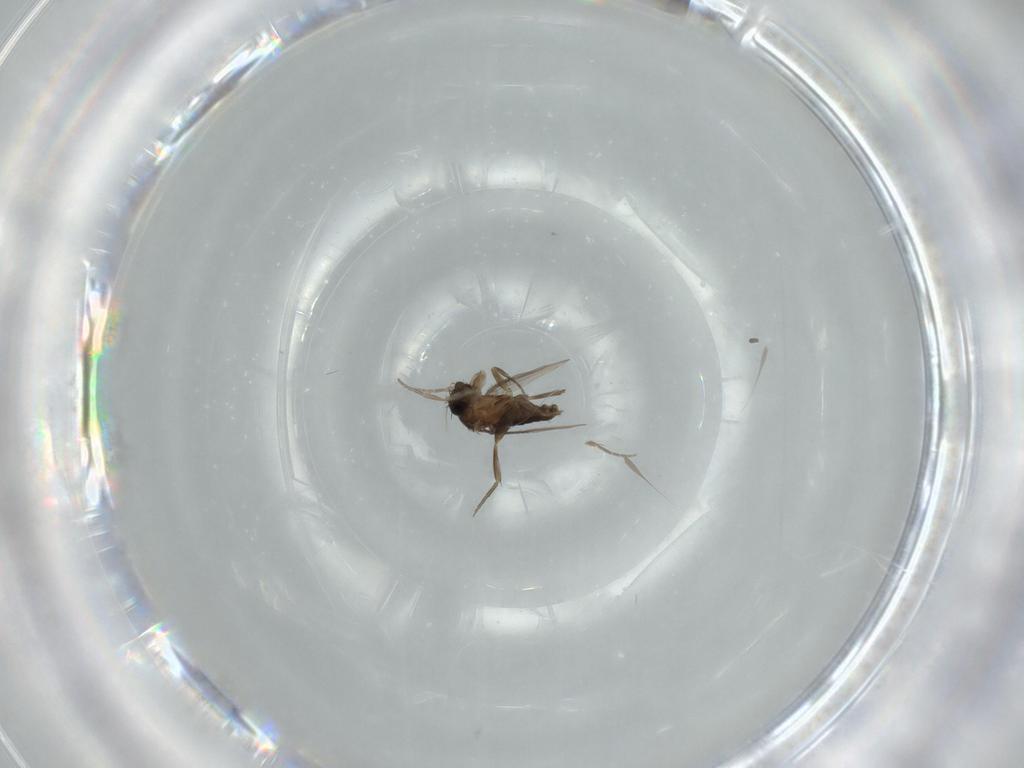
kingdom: Animalia
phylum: Arthropoda
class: Insecta
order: Diptera
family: Phoridae
